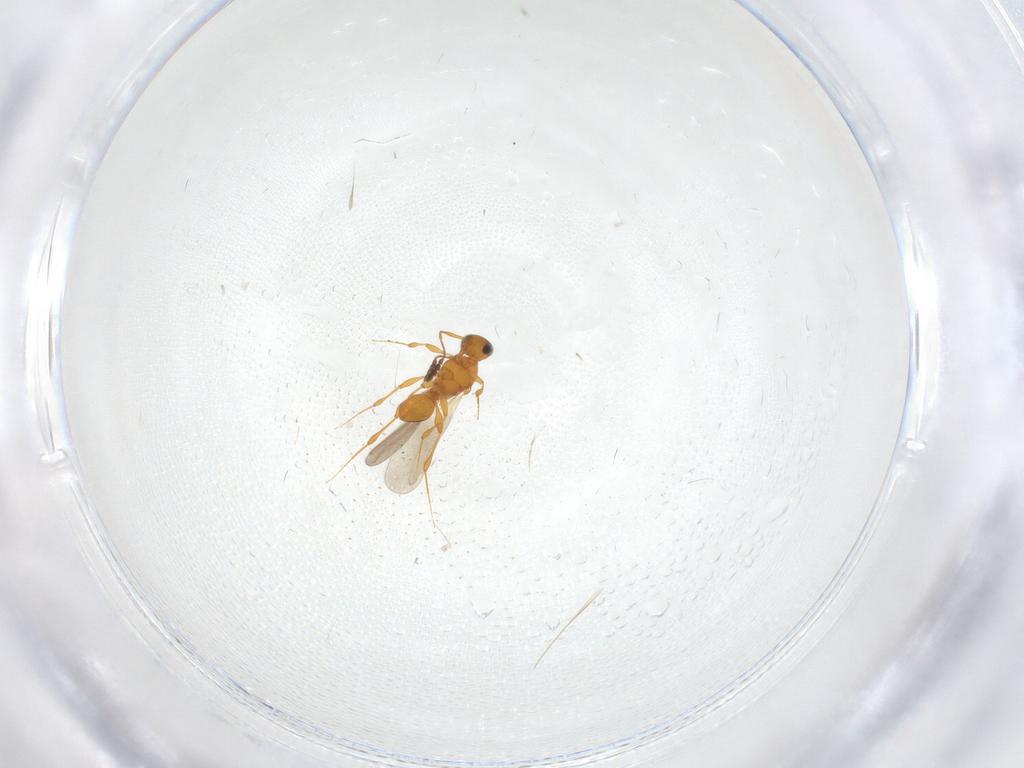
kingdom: Animalia
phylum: Arthropoda
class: Insecta
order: Hymenoptera
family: Platygastridae
